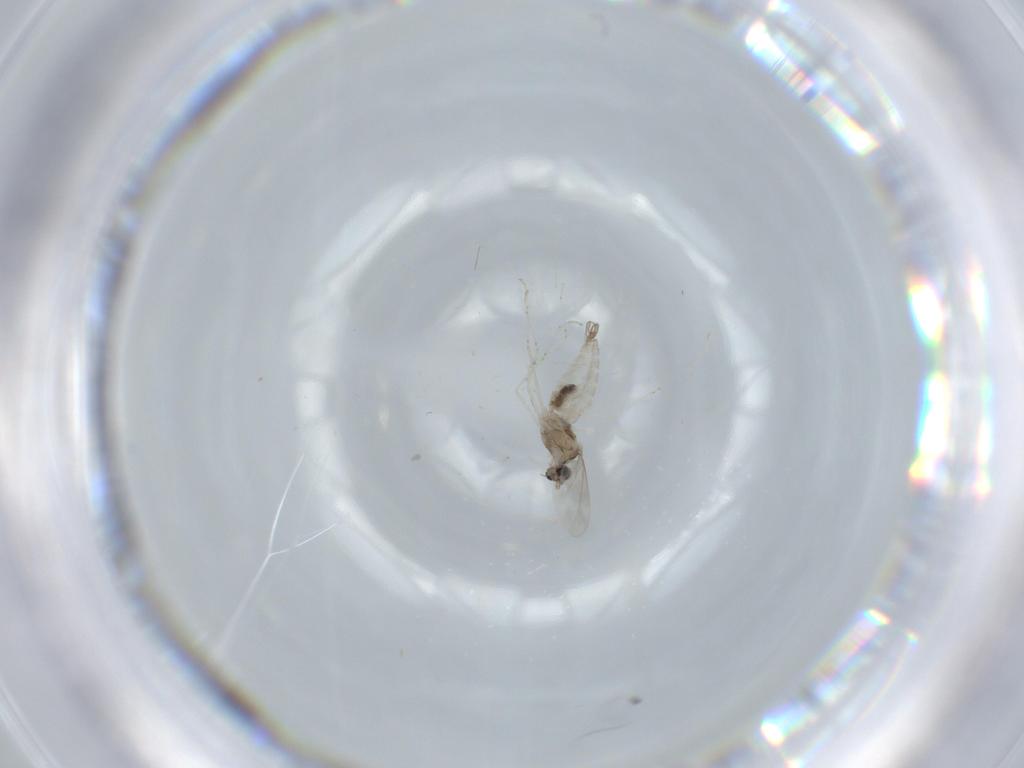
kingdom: Animalia
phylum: Arthropoda
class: Insecta
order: Diptera
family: Cecidomyiidae
